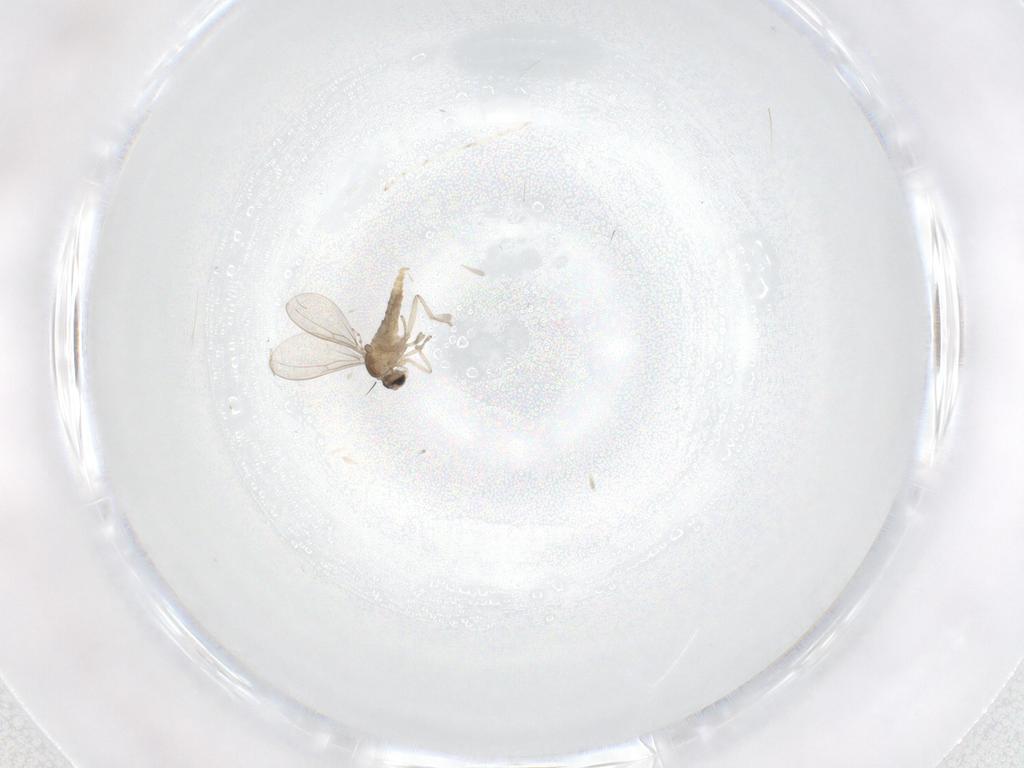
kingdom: Animalia
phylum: Arthropoda
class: Insecta
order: Diptera
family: Cecidomyiidae
